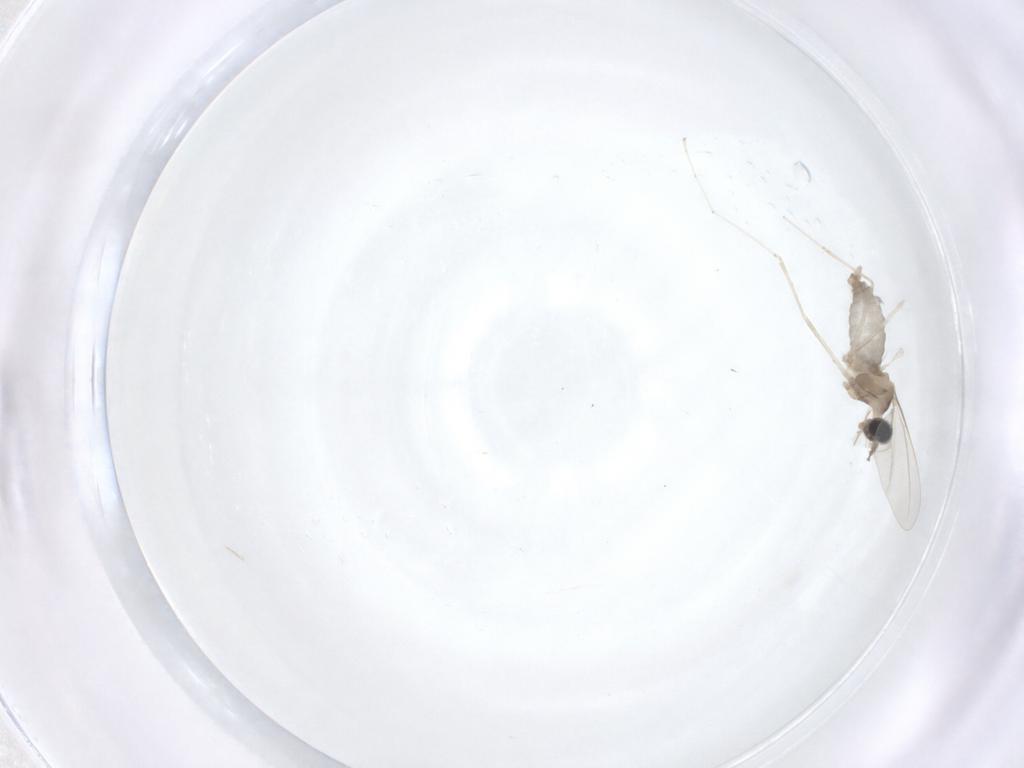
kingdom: Animalia
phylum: Arthropoda
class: Insecta
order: Diptera
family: Cecidomyiidae
